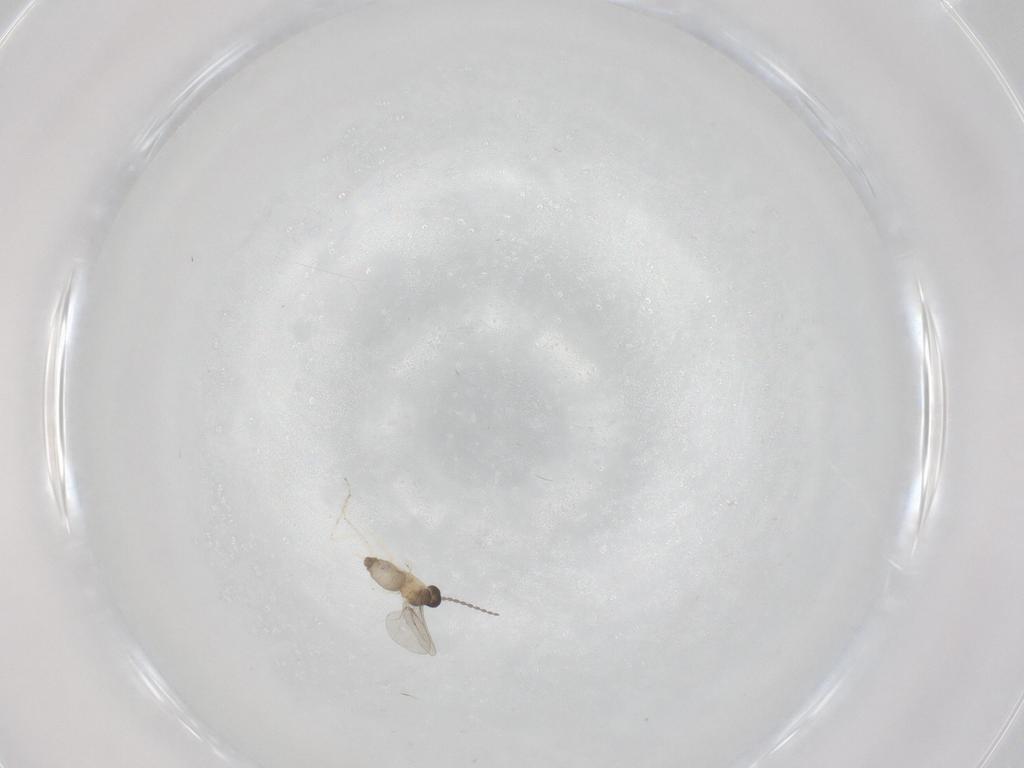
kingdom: Animalia
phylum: Arthropoda
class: Insecta
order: Diptera
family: Cecidomyiidae
